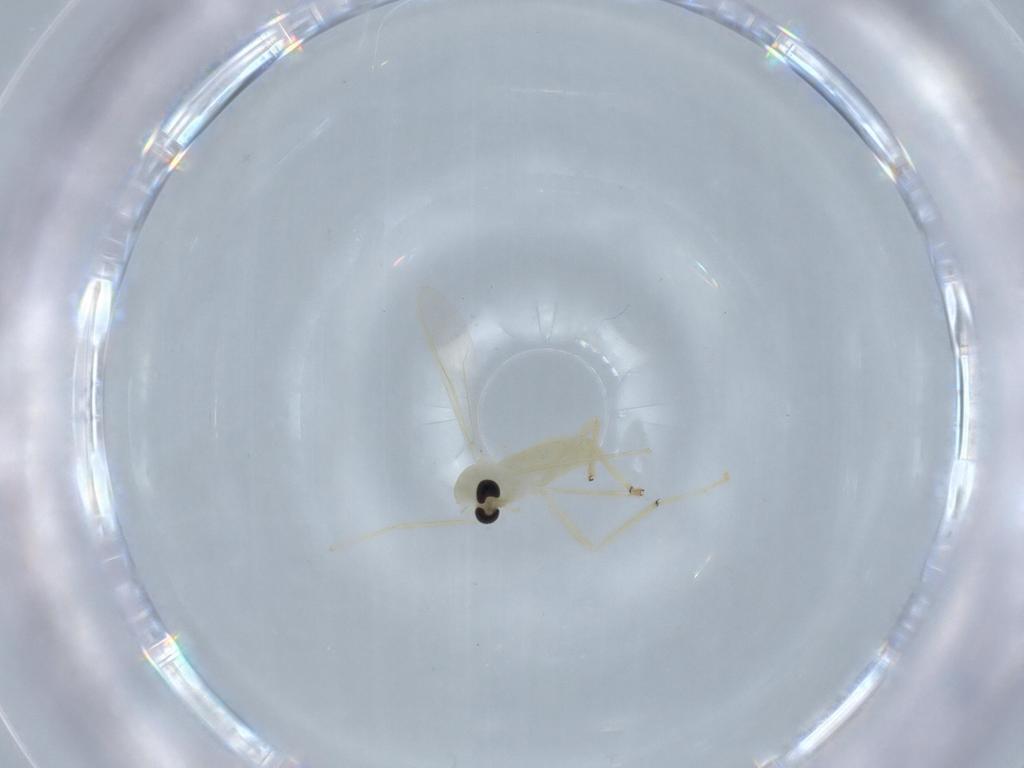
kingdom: Animalia
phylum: Arthropoda
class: Insecta
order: Diptera
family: Chironomidae
